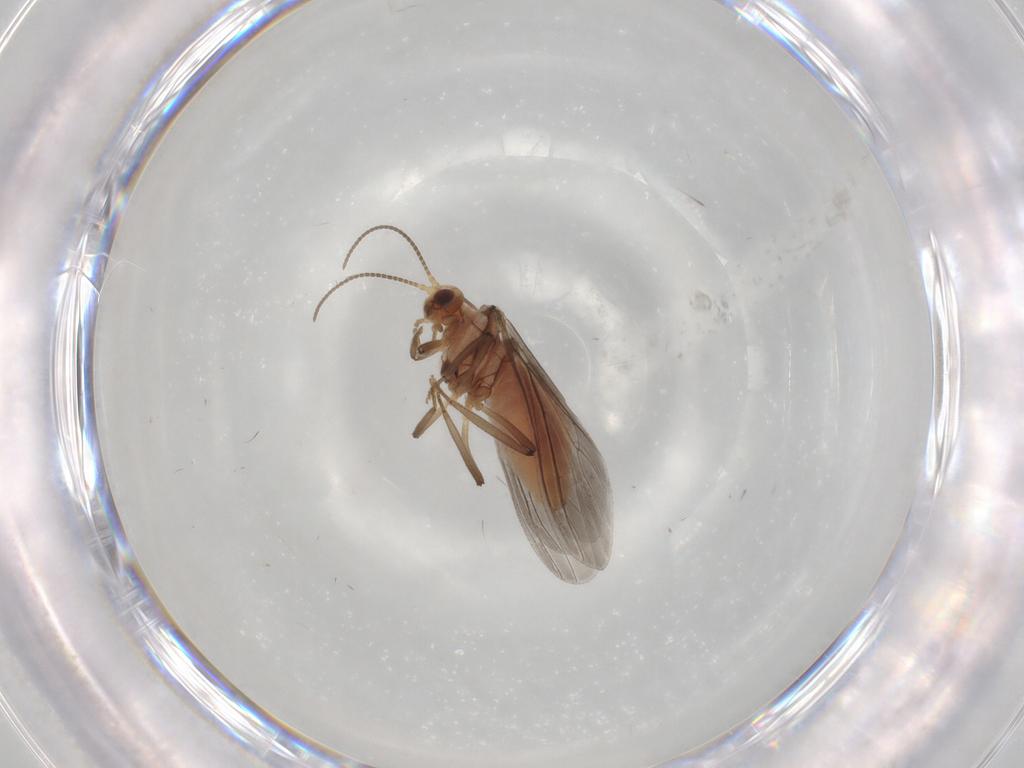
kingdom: Animalia
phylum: Arthropoda
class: Insecta
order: Neuroptera
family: Coniopterygidae
